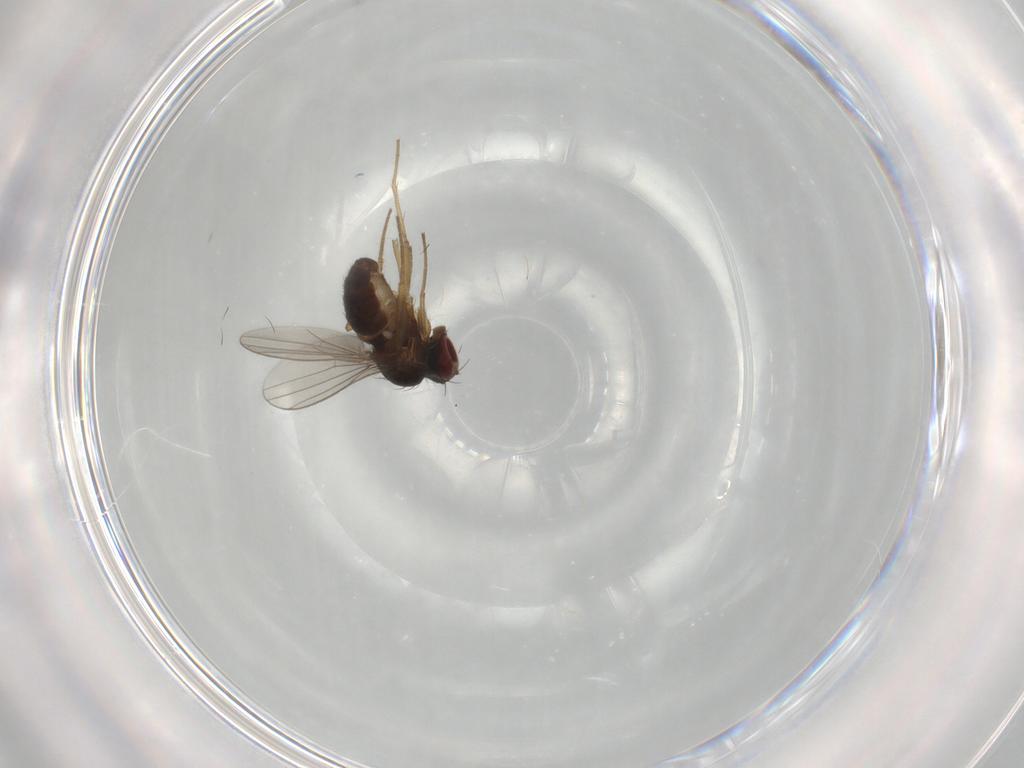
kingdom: Animalia
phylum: Arthropoda
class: Insecta
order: Diptera
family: Dolichopodidae
